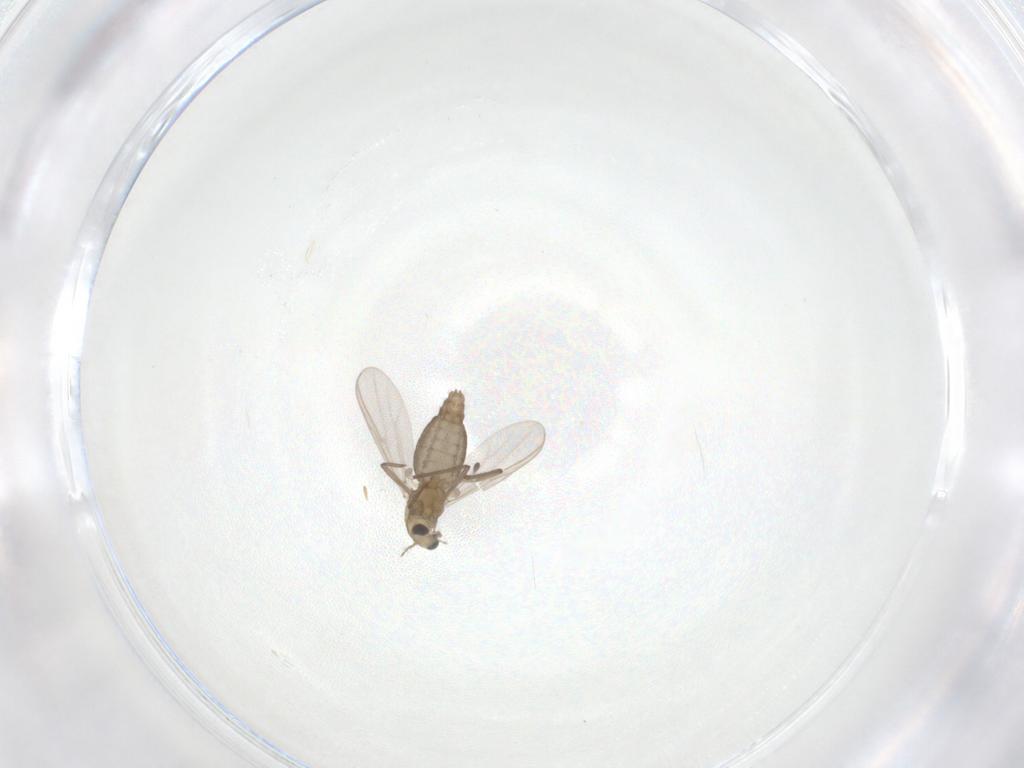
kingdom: Animalia
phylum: Arthropoda
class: Insecta
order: Diptera
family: Chironomidae
